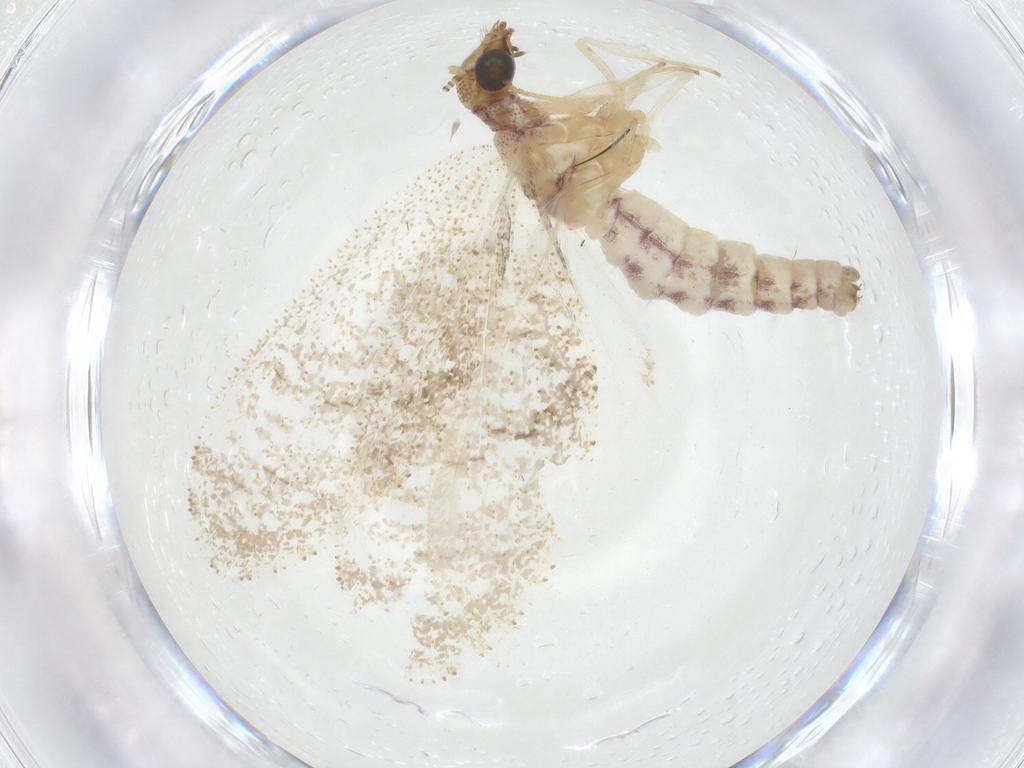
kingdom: Animalia
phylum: Arthropoda
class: Insecta
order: Neuroptera
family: Hemerobiidae
